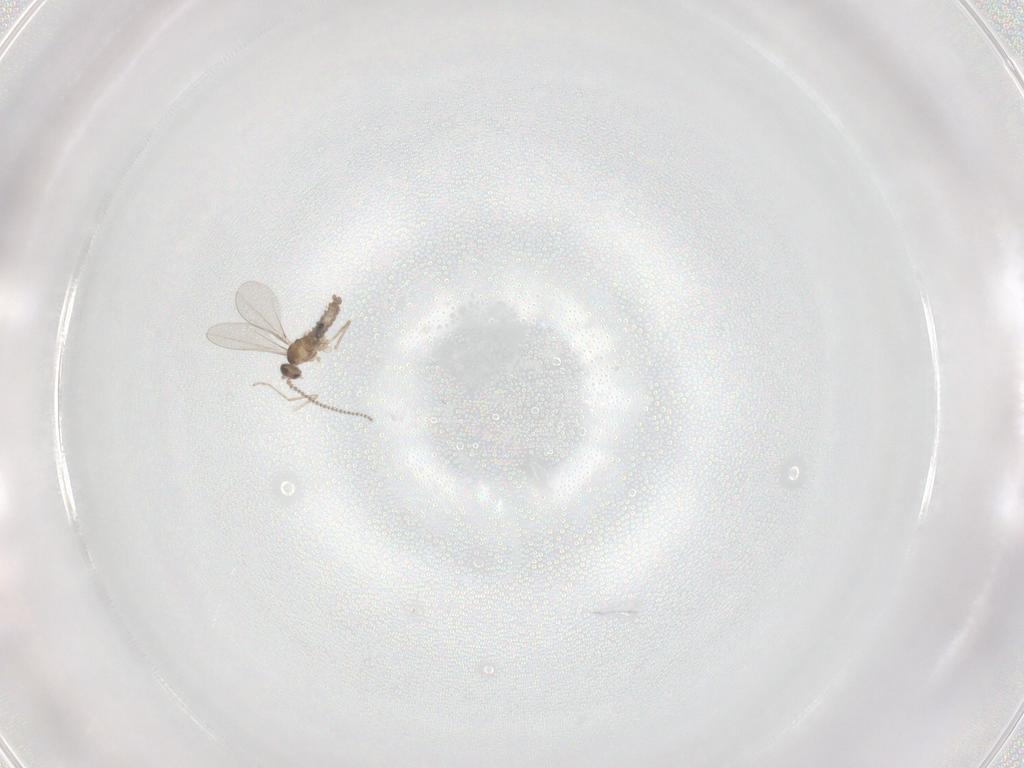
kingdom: Animalia
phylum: Arthropoda
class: Insecta
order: Diptera
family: Cecidomyiidae
